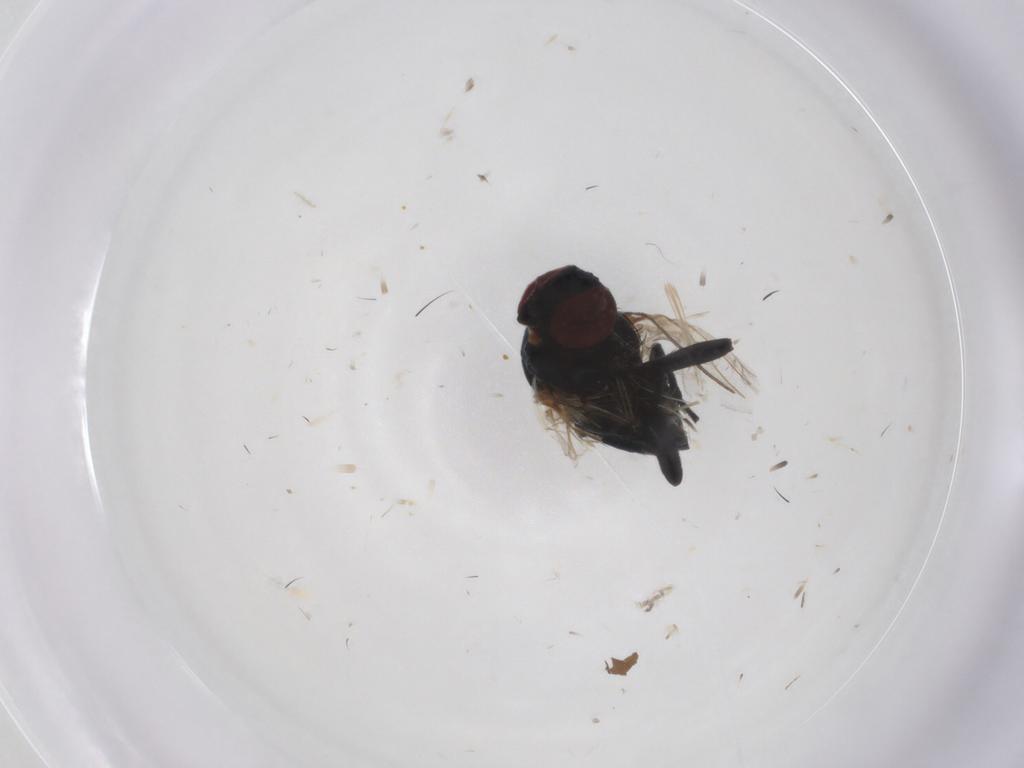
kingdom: Animalia
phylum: Arthropoda
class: Insecta
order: Diptera
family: Agromyzidae
